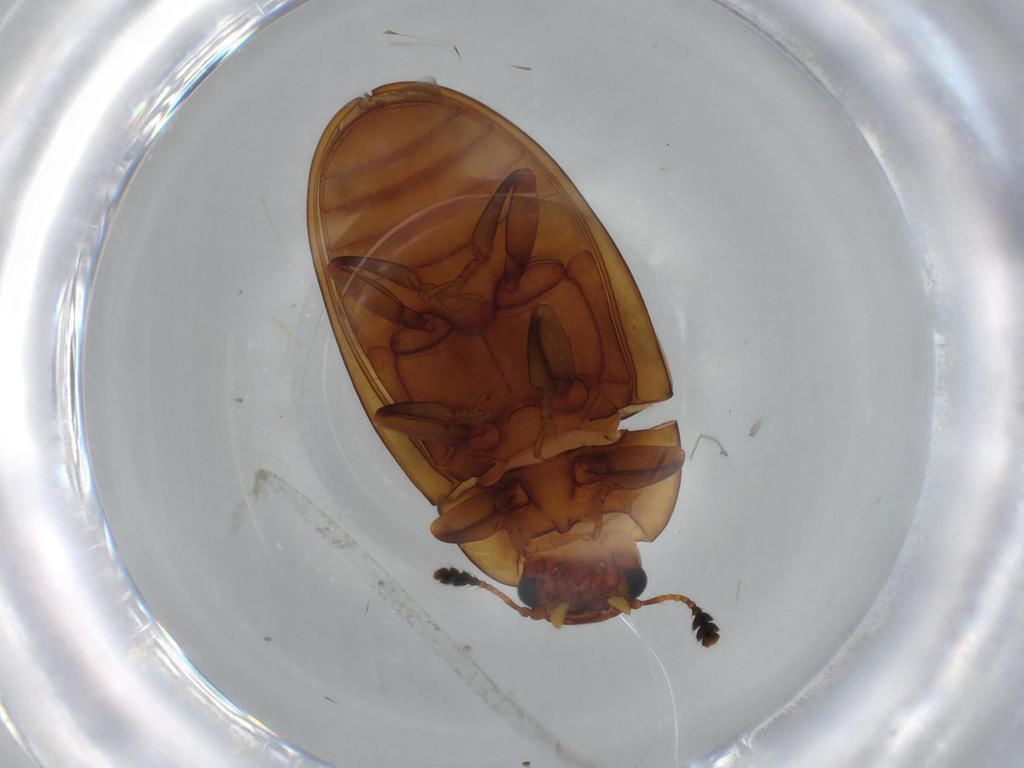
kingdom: Animalia
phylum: Arthropoda
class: Insecta
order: Coleoptera
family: Erotylidae
